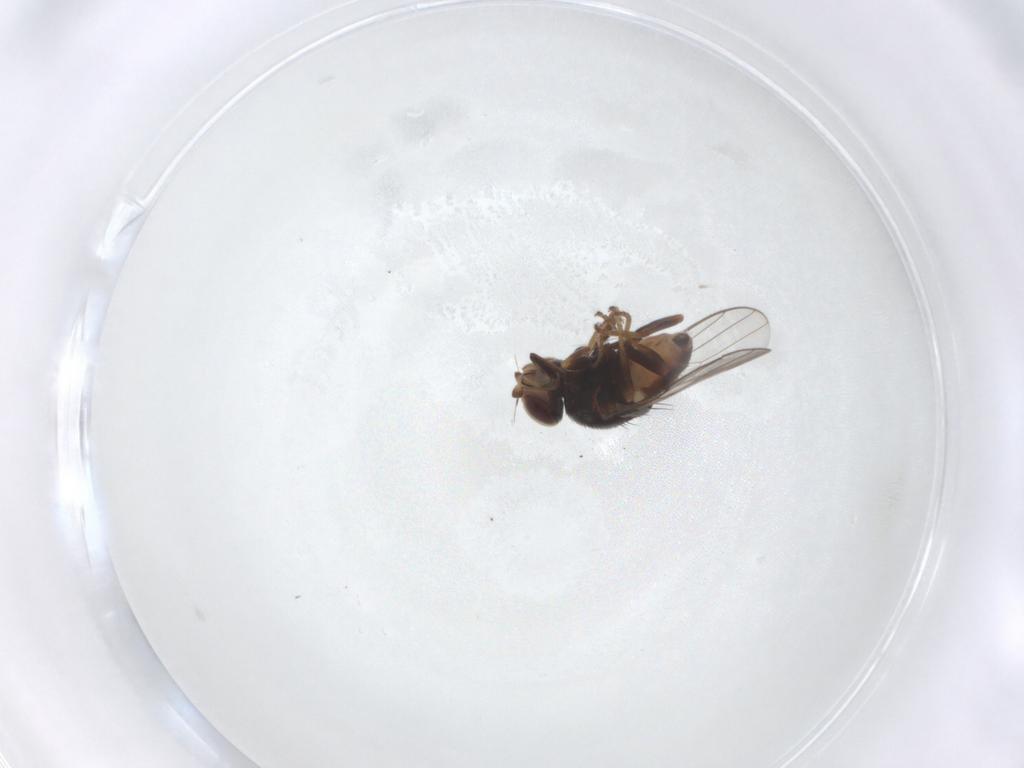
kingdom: Animalia
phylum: Arthropoda
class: Insecta
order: Diptera
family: Chloropidae
